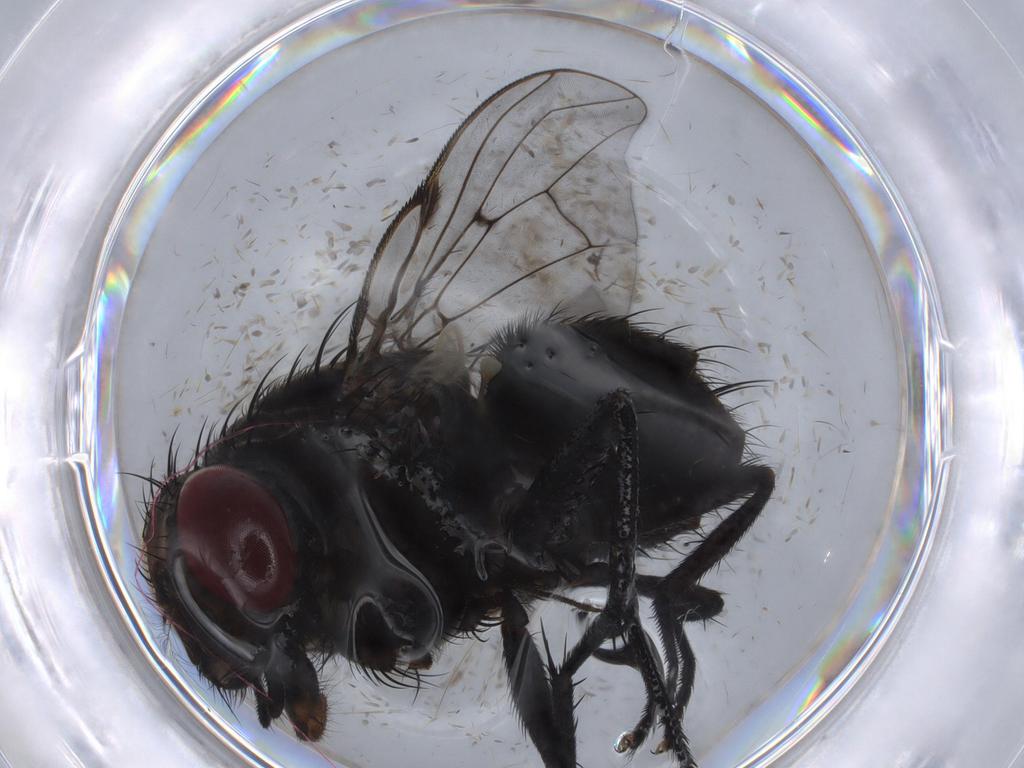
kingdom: Animalia
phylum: Arthropoda
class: Insecta
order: Diptera
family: Muscidae
